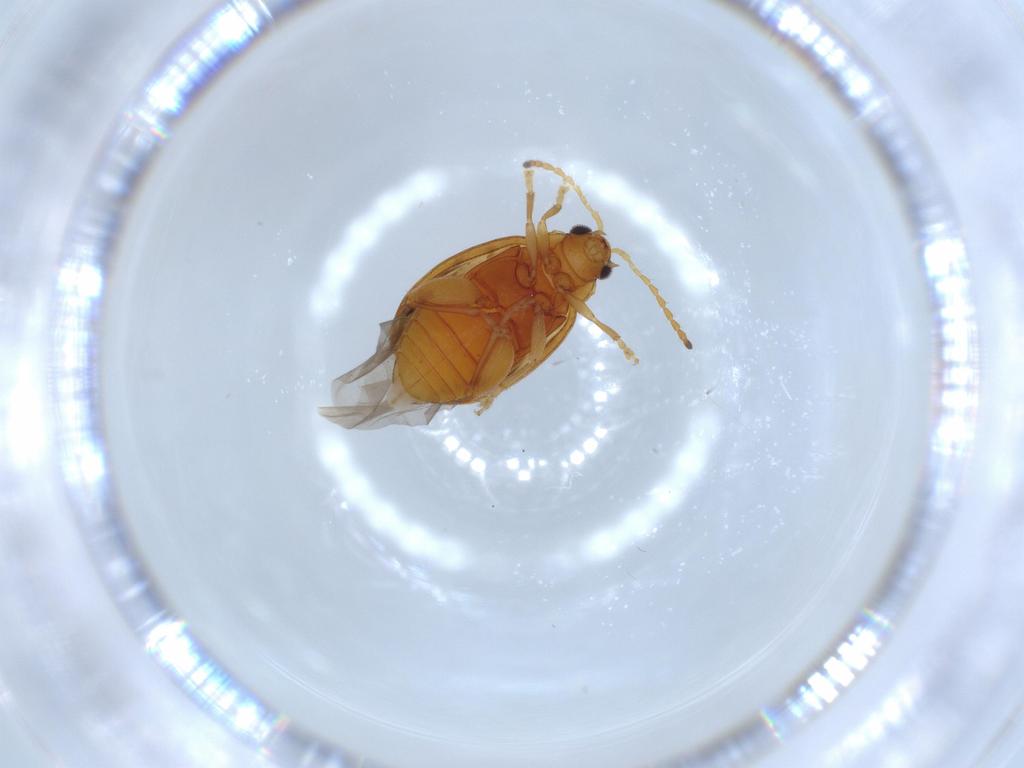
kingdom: Animalia
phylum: Arthropoda
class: Insecta
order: Coleoptera
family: Chrysomelidae
